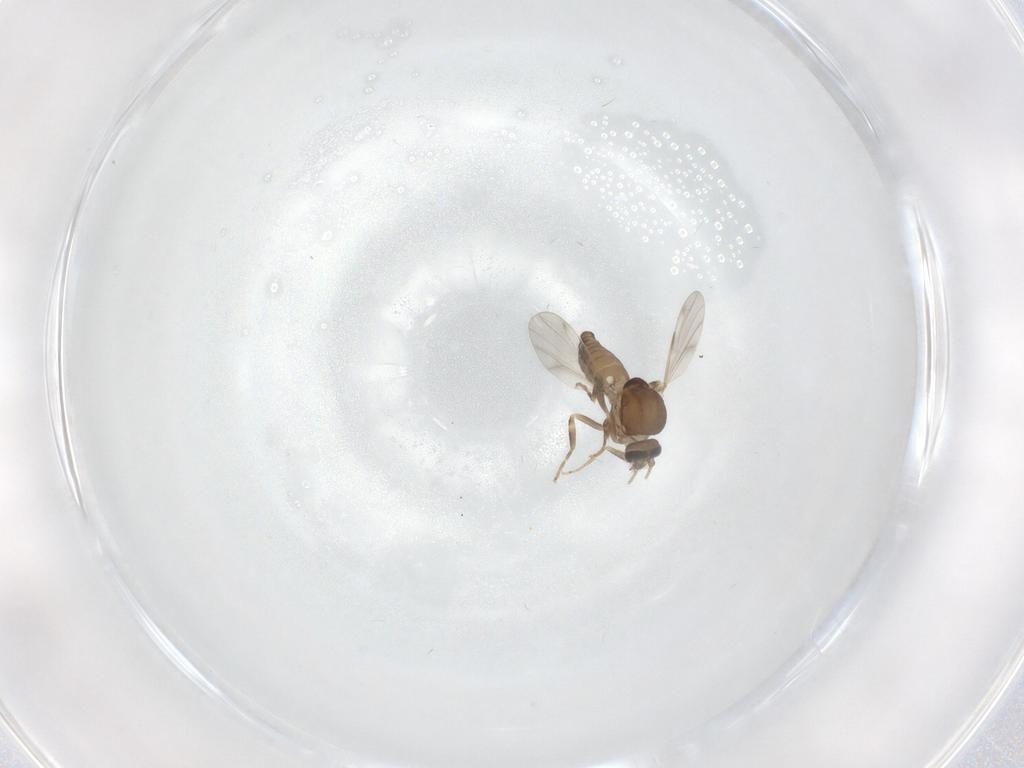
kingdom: Animalia
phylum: Arthropoda
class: Insecta
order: Diptera
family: Ceratopogonidae
